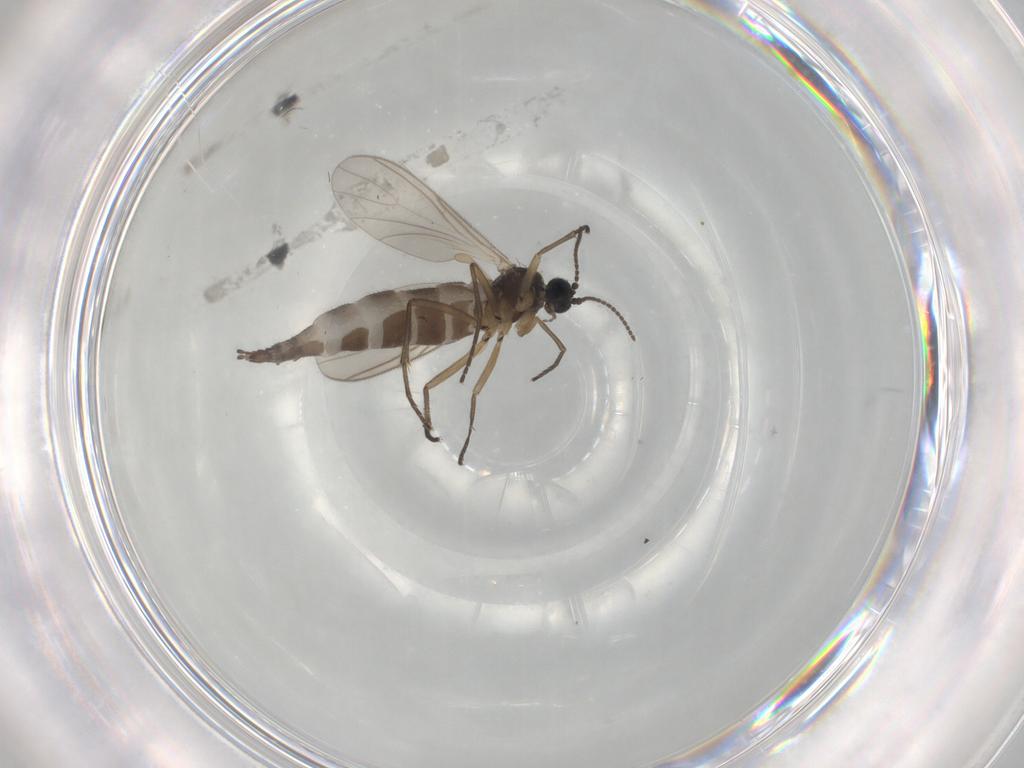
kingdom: Animalia
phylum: Arthropoda
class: Insecta
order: Diptera
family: Sciaridae
